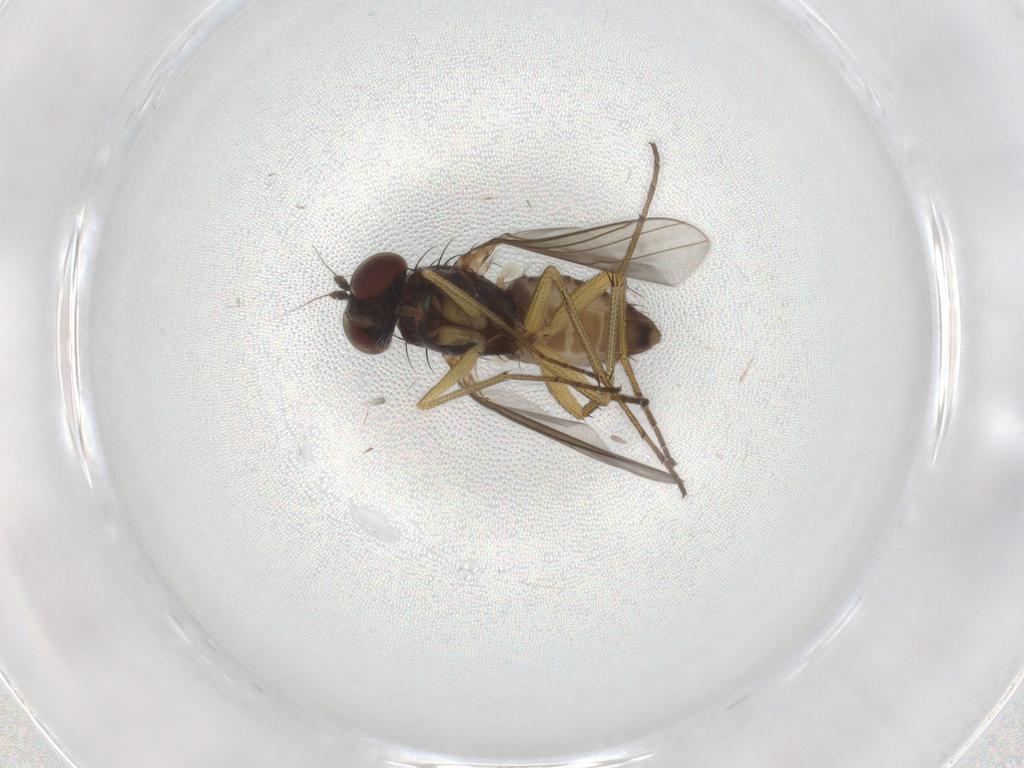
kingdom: Animalia
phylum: Arthropoda
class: Insecta
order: Diptera
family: Dolichopodidae
